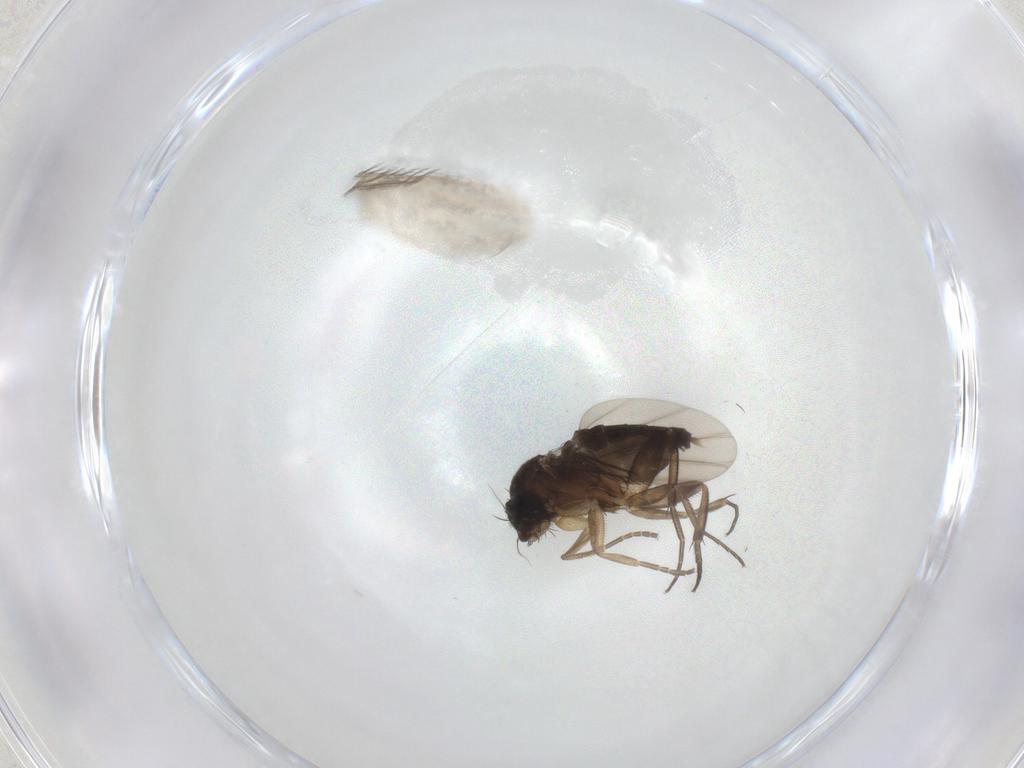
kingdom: Animalia
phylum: Arthropoda
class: Insecta
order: Diptera
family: Phoridae
